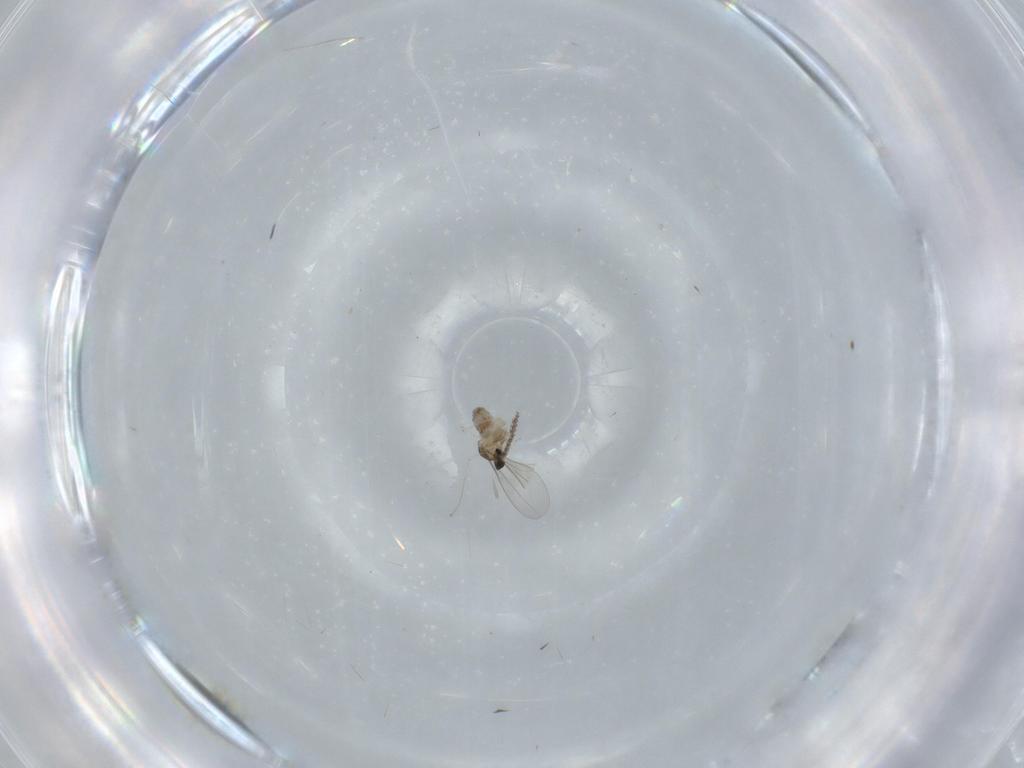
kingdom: Animalia
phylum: Arthropoda
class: Insecta
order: Diptera
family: Cecidomyiidae
